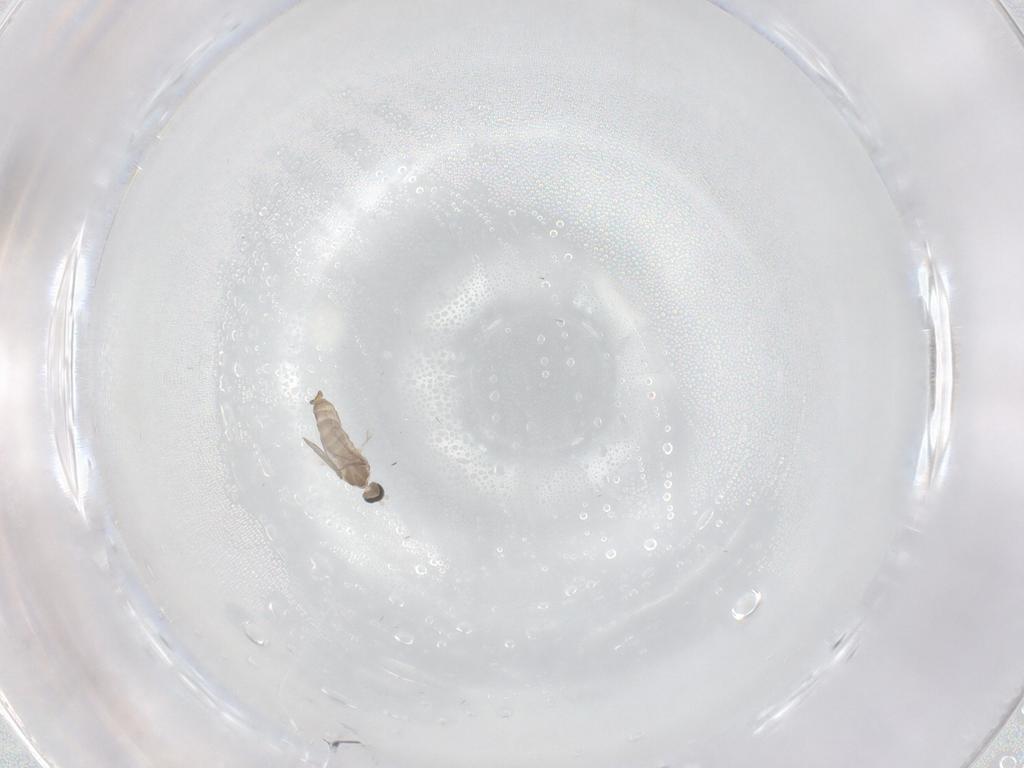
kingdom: Animalia
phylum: Arthropoda
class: Insecta
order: Diptera
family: Cecidomyiidae
